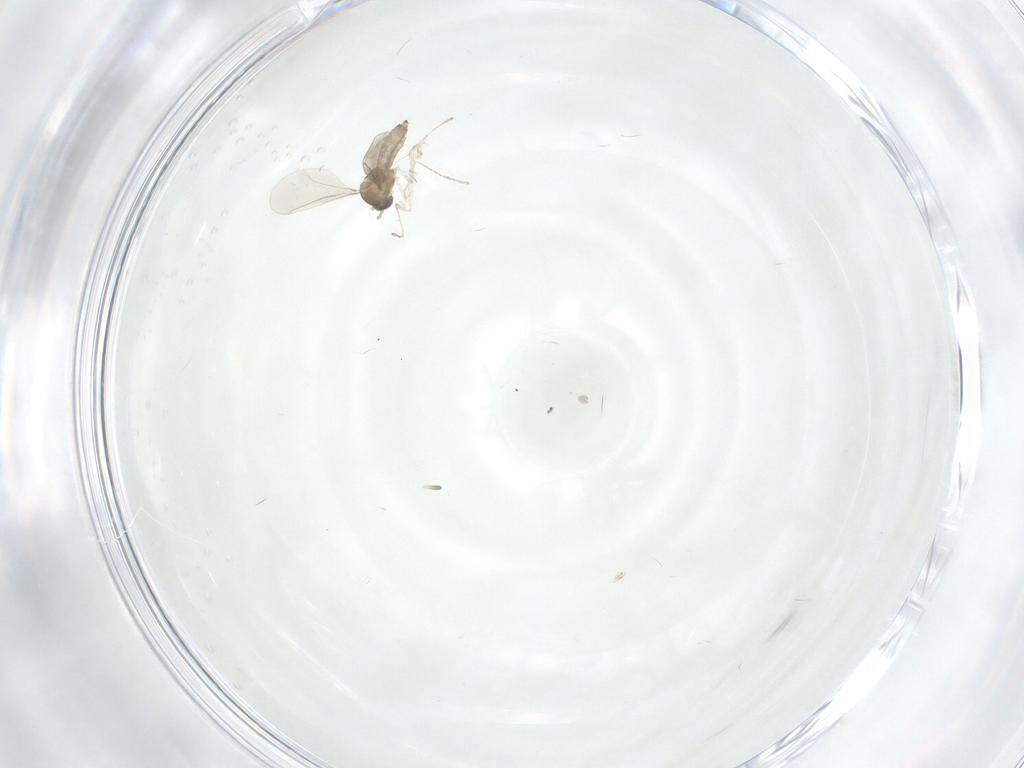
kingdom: Animalia
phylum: Arthropoda
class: Insecta
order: Diptera
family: Cecidomyiidae
